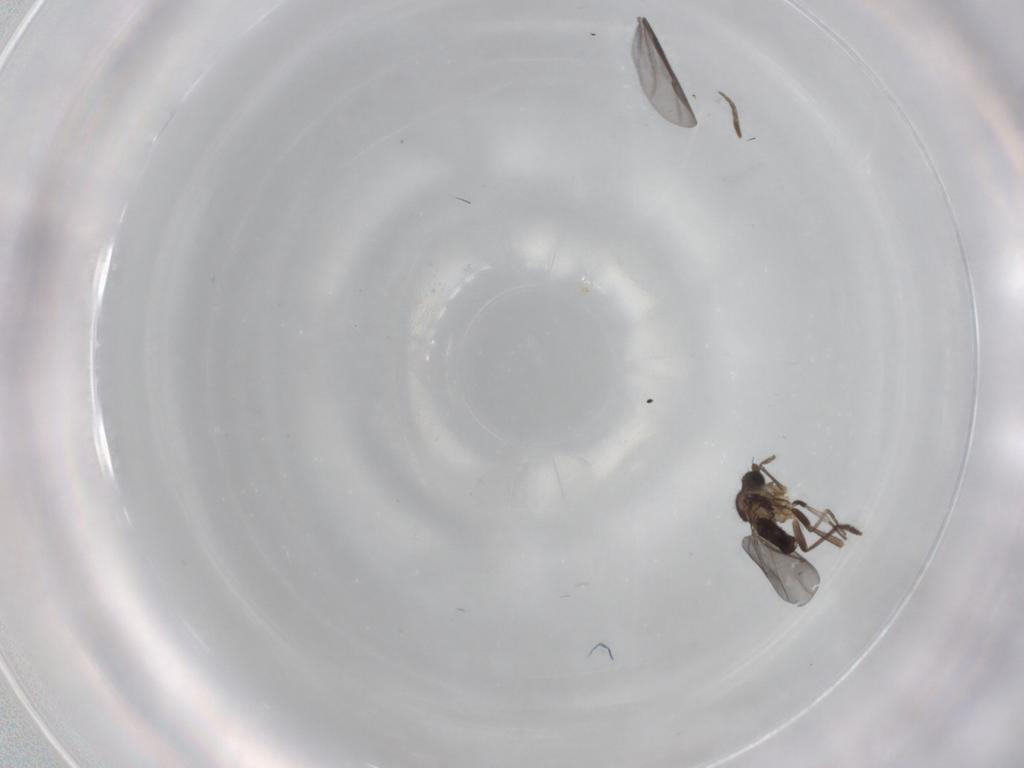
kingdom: Animalia
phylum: Arthropoda
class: Insecta
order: Diptera
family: Phoridae
